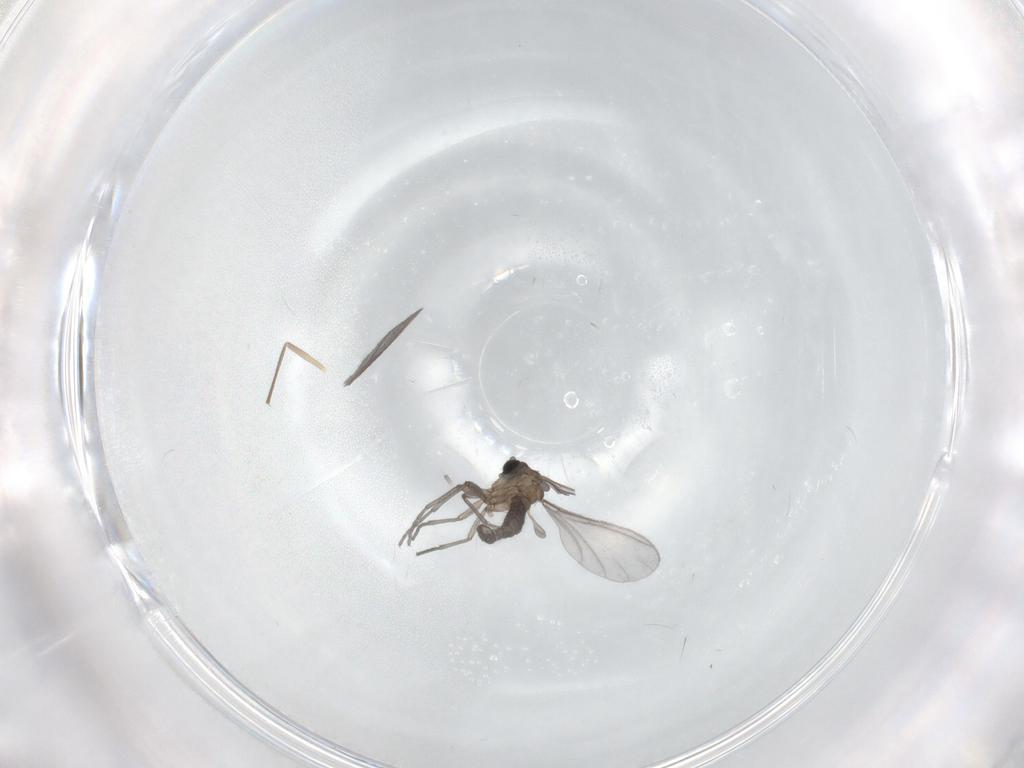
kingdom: Animalia
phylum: Arthropoda
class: Insecta
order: Diptera
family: Sciaridae
